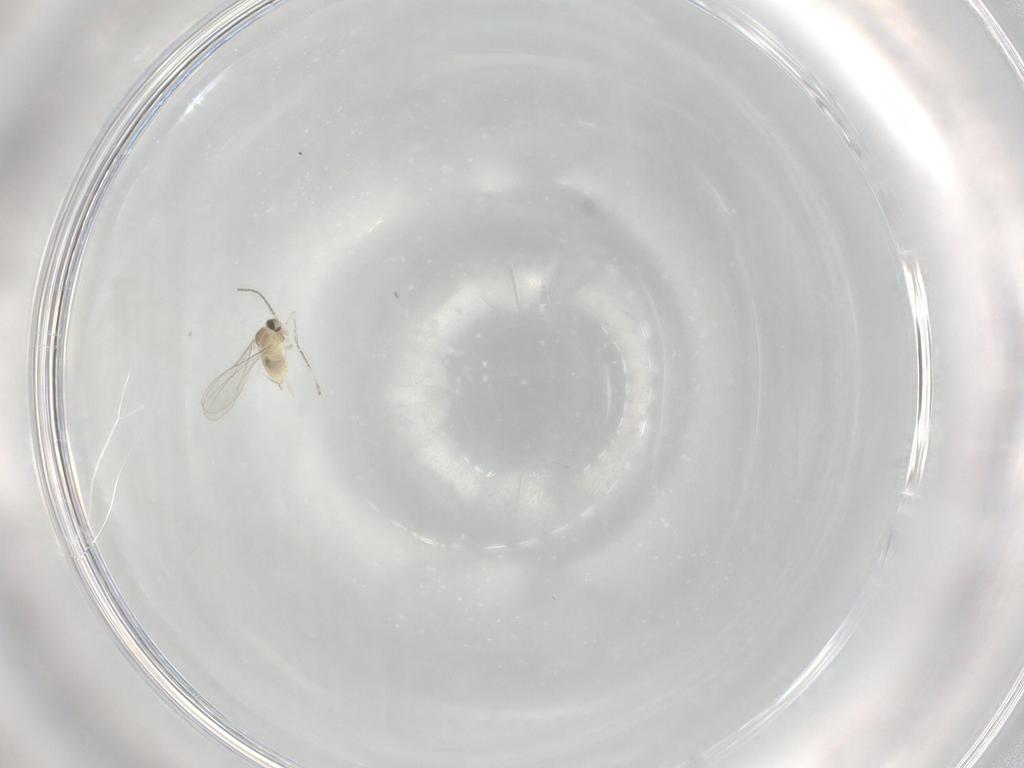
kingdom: Animalia
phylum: Arthropoda
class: Insecta
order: Diptera
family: Cecidomyiidae
